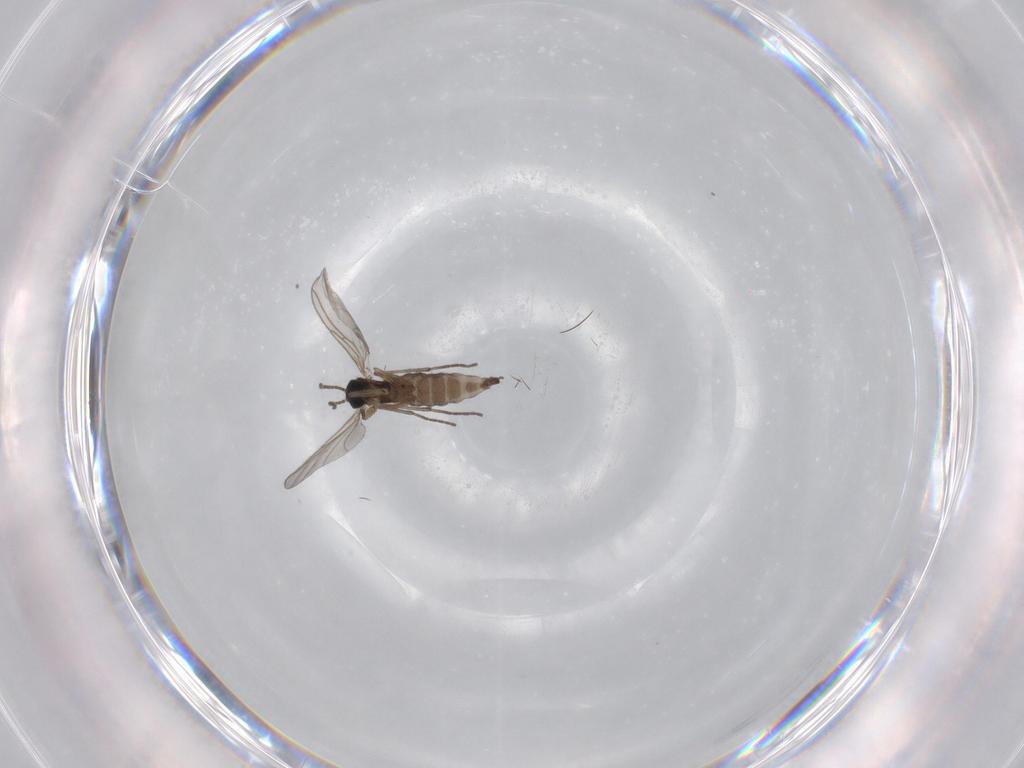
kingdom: Animalia
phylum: Arthropoda
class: Insecta
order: Diptera
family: Sciaridae
